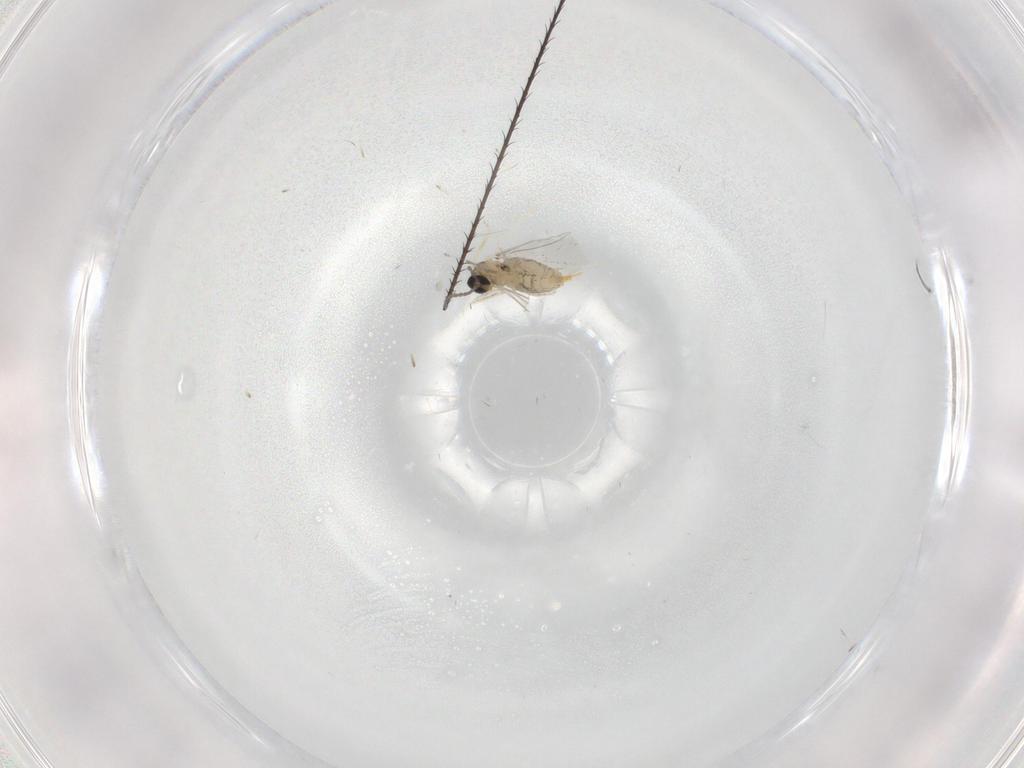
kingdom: Animalia
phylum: Arthropoda
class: Insecta
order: Diptera
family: Cecidomyiidae
